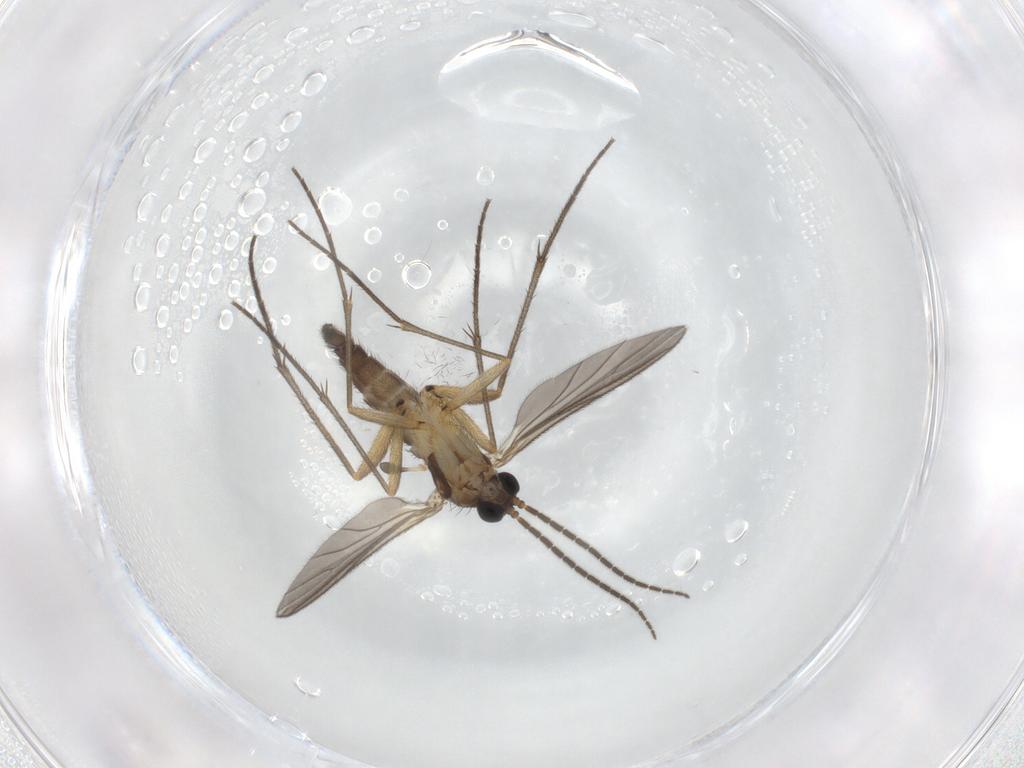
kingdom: Animalia
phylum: Arthropoda
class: Insecta
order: Diptera
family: Sciaridae
